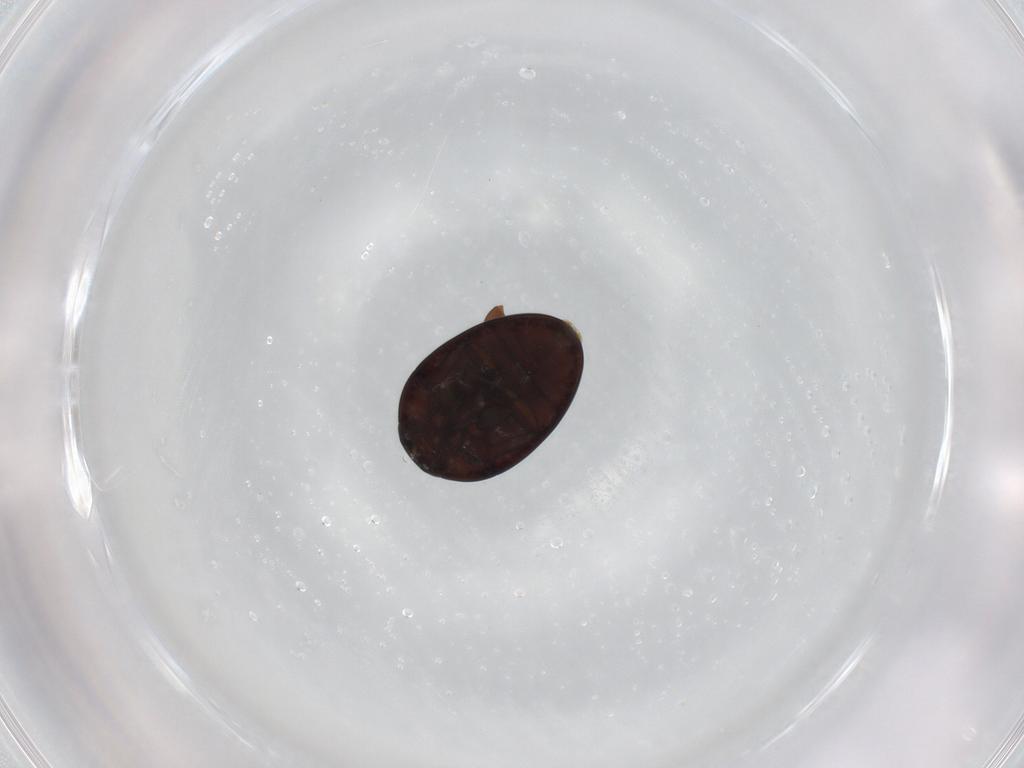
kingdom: Animalia
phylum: Arthropoda
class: Insecta
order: Coleoptera
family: Phalacridae
